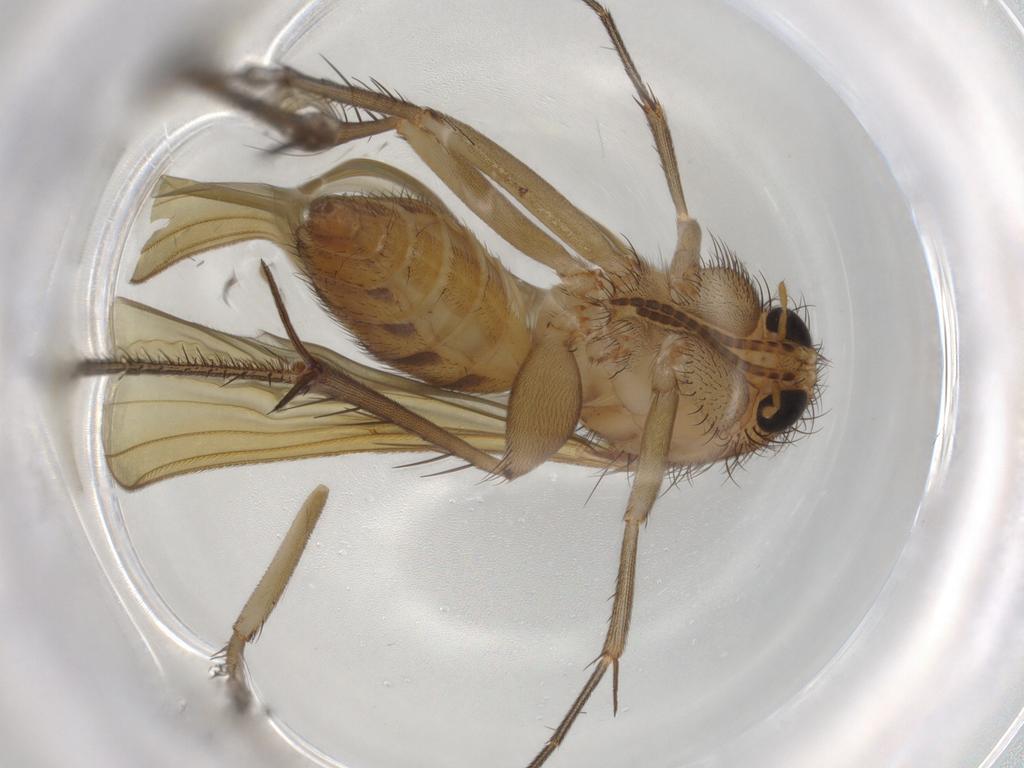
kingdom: Animalia
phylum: Arthropoda
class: Insecta
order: Diptera
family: Mycetophilidae
